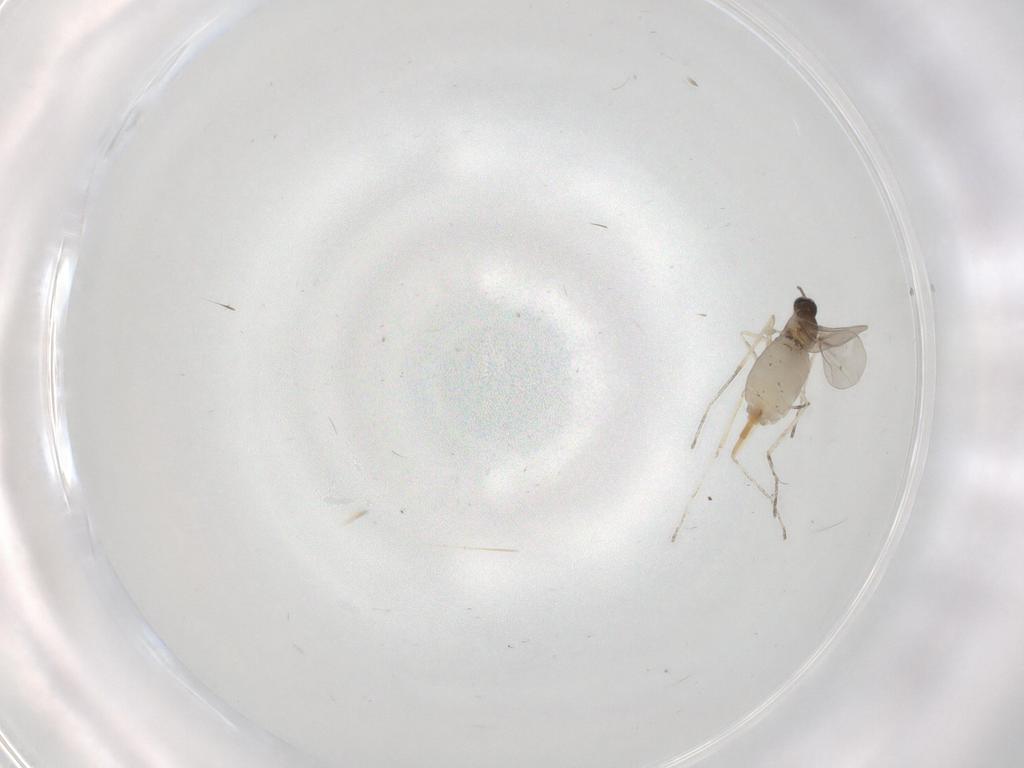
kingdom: Animalia
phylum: Arthropoda
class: Insecta
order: Diptera
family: Cecidomyiidae
